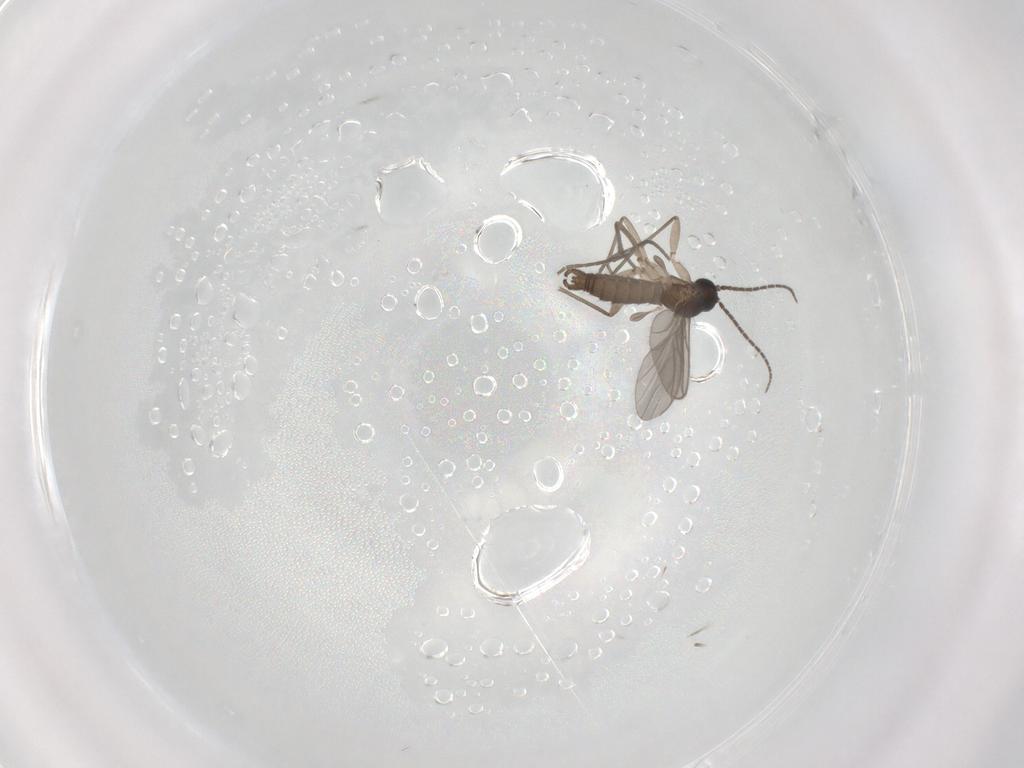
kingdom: Animalia
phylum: Arthropoda
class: Insecta
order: Diptera
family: Sciaridae
